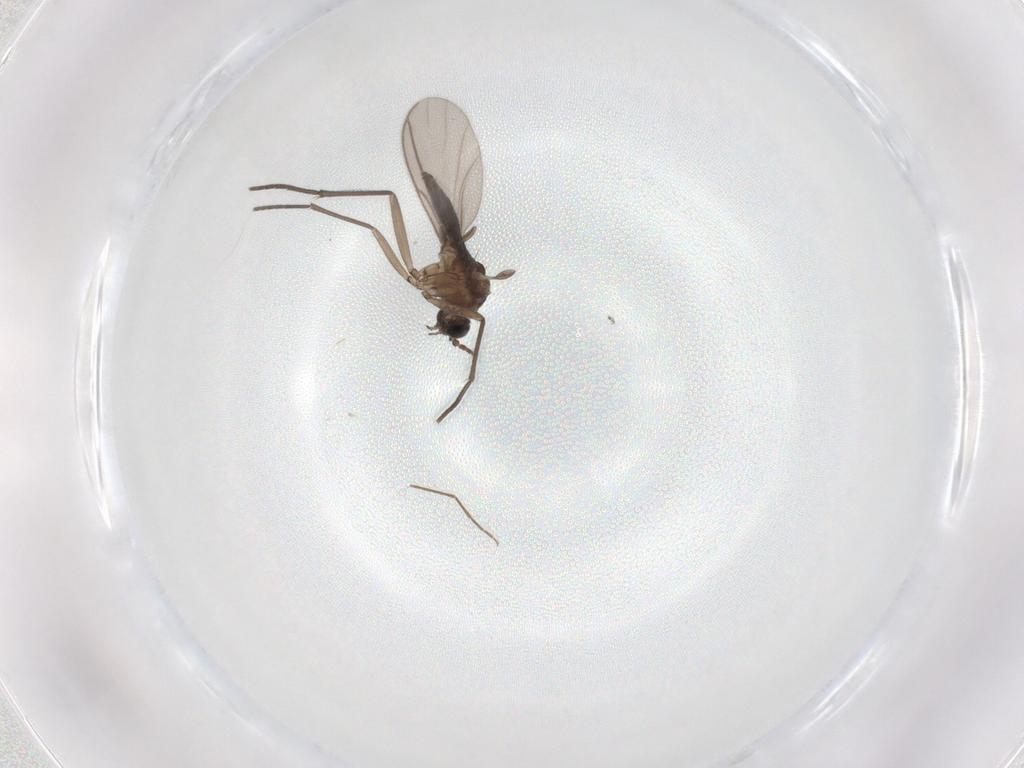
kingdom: Animalia
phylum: Arthropoda
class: Insecta
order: Diptera
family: Sciaridae
